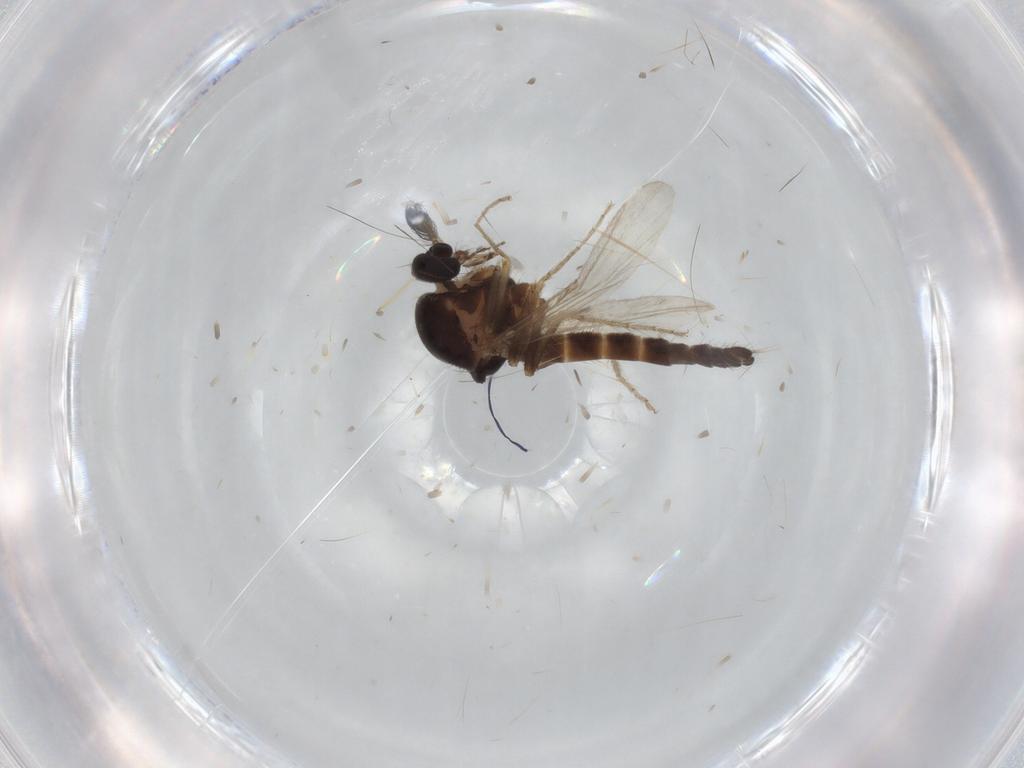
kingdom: Animalia
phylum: Arthropoda
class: Insecta
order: Diptera
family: Ceratopogonidae
